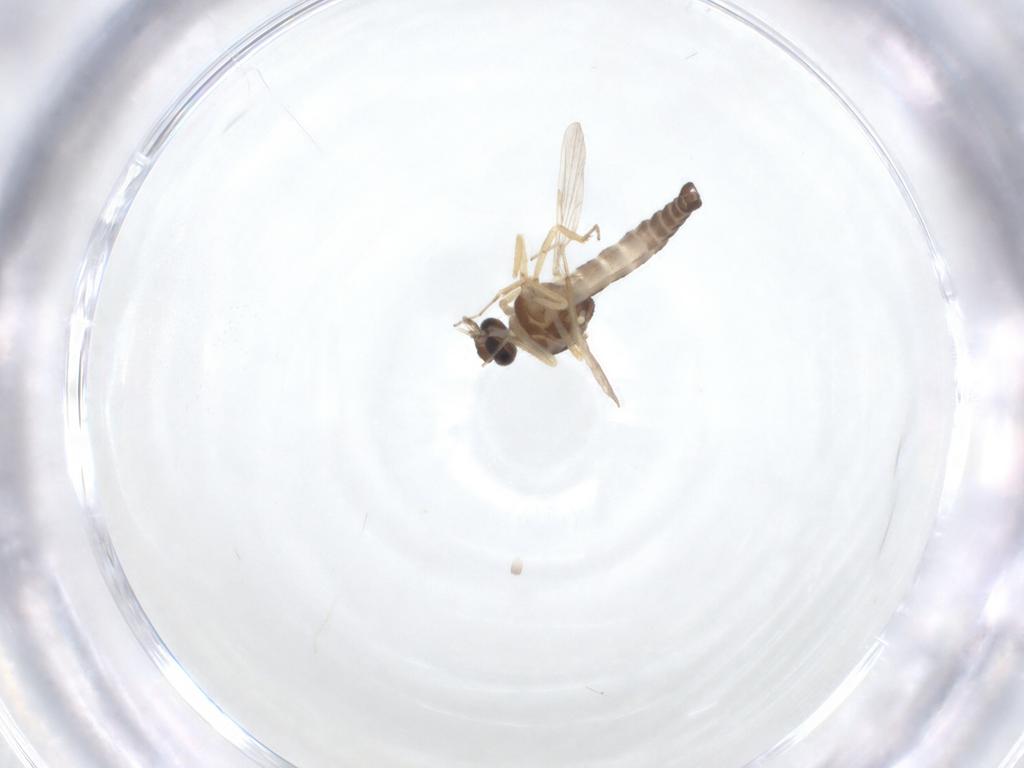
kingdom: Animalia
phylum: Arthropoda
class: Insecta
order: Diptera
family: Ceratopogonidae
